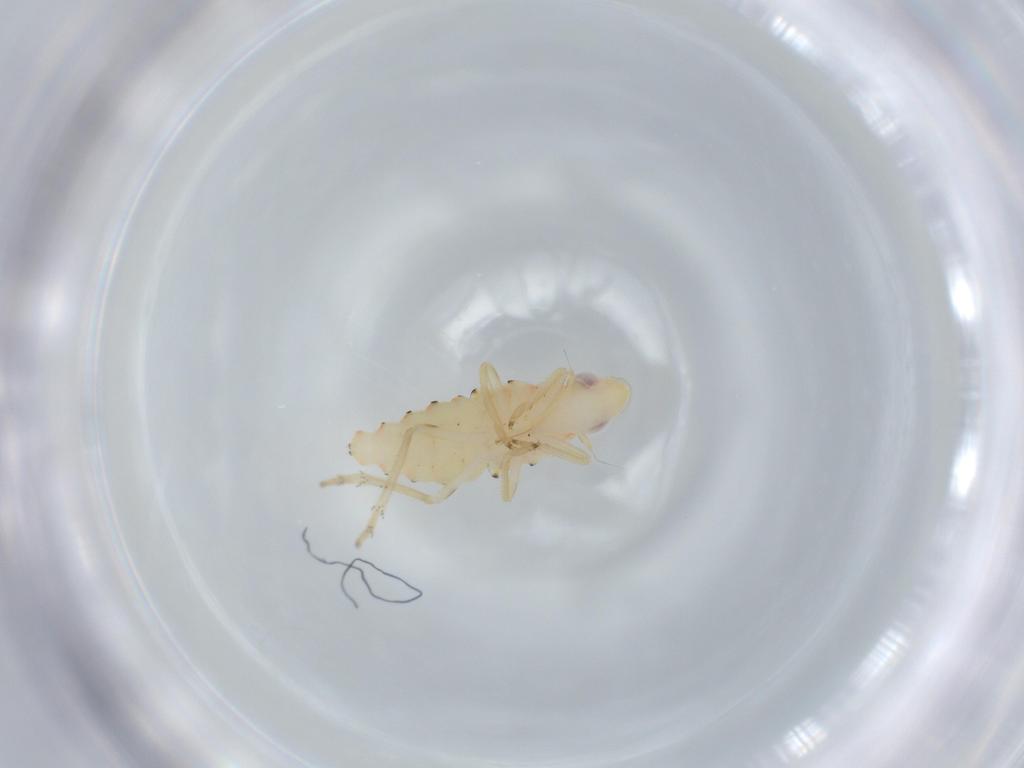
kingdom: Animalia
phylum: Arthropoda
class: Insecta
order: Hemiptera
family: Tropiduchidae
